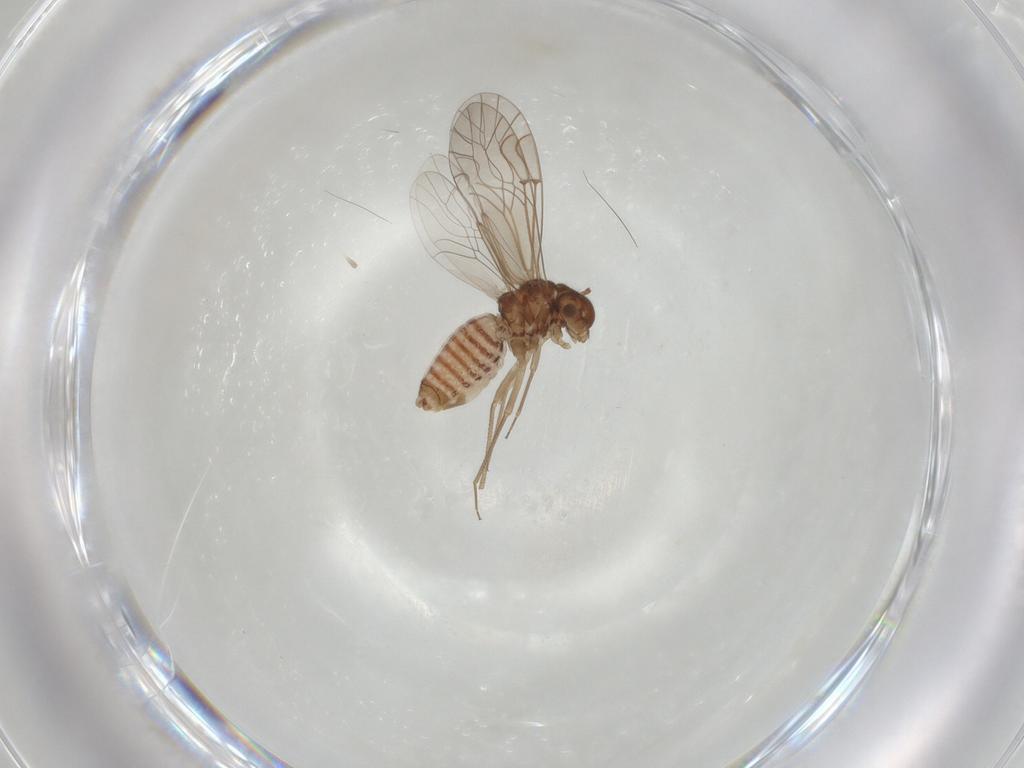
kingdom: Animalia
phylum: Arthropoda
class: Insecta
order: Psocodea
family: Lachesillidae
